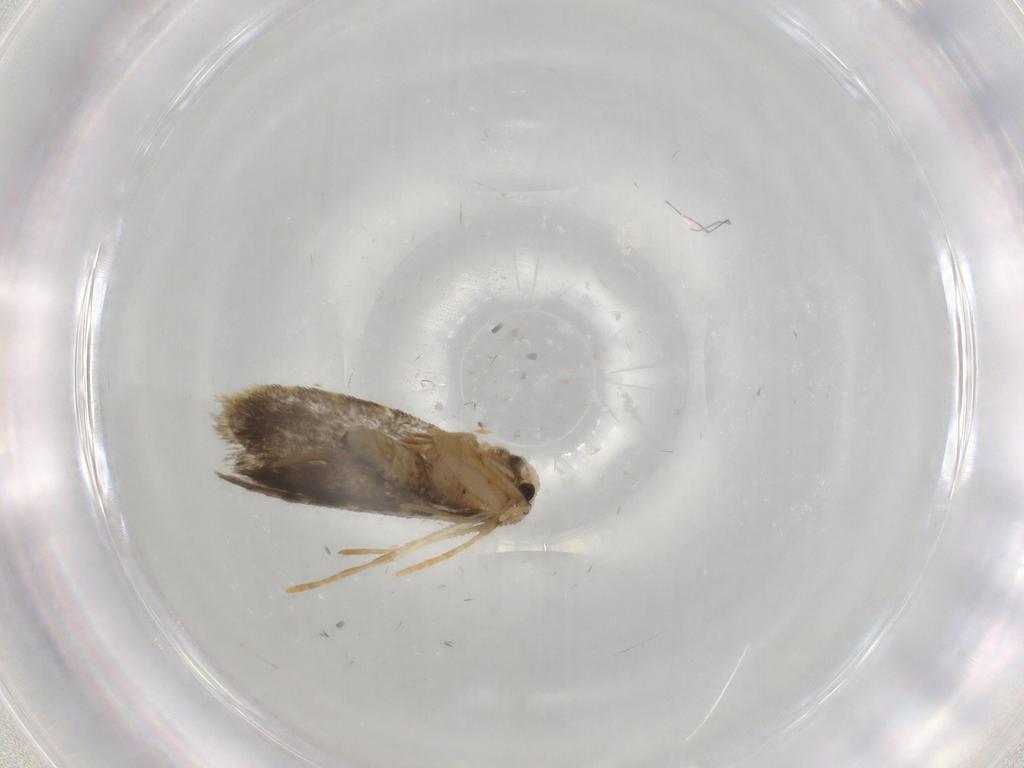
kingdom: Animalia
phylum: Arthropoda
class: Insecta
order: Lepidoptera
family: Psychidae
